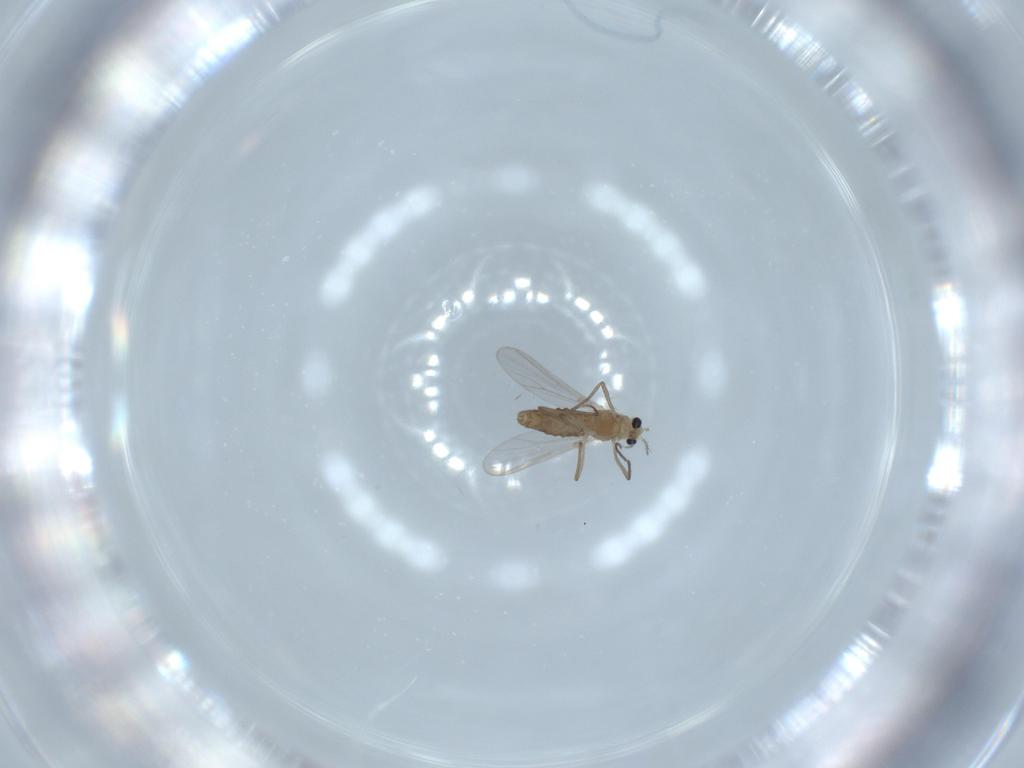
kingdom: Animalia
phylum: Arthropoda
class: Insecta
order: Diptera
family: Chironomidae
